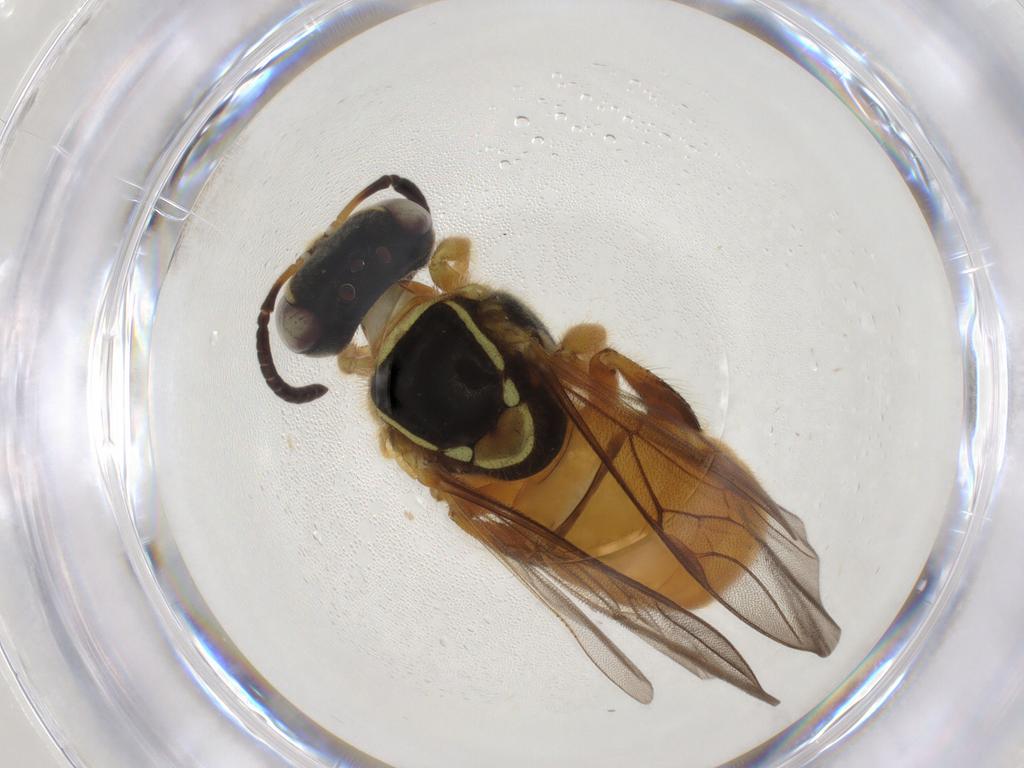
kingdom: Animalia
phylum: Arthropoda
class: Insecta
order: Hymenoptera
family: Apidae
